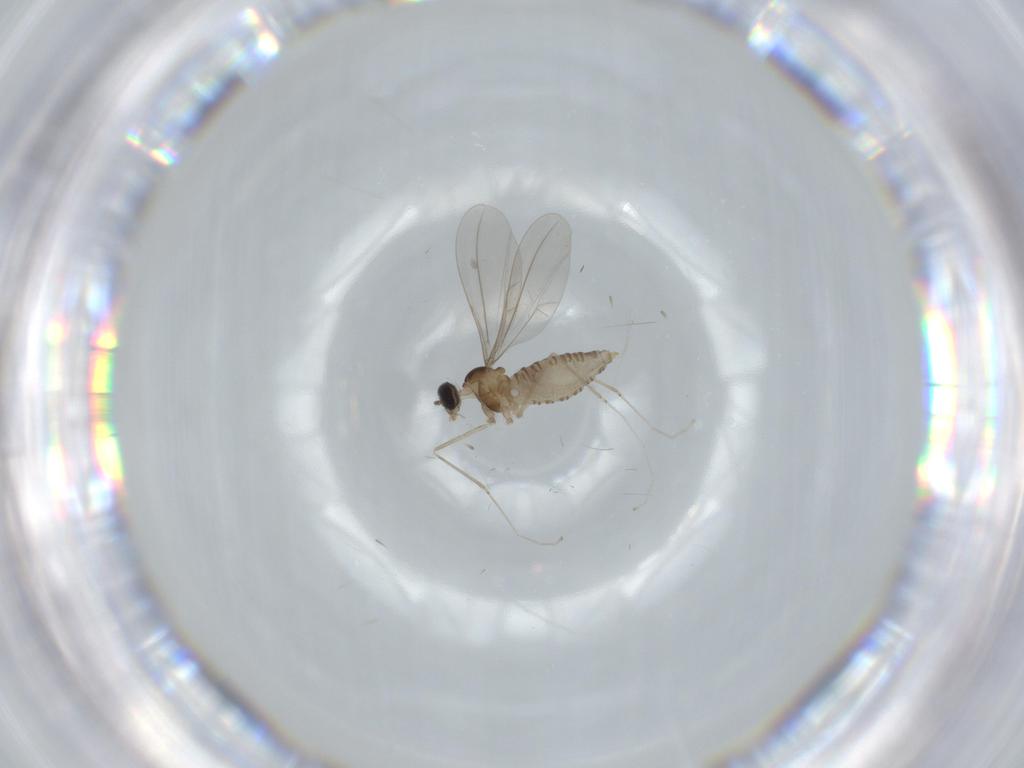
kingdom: Animalia
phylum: Arthropoda
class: Insecta
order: Diptera
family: Cecidomyiidae
